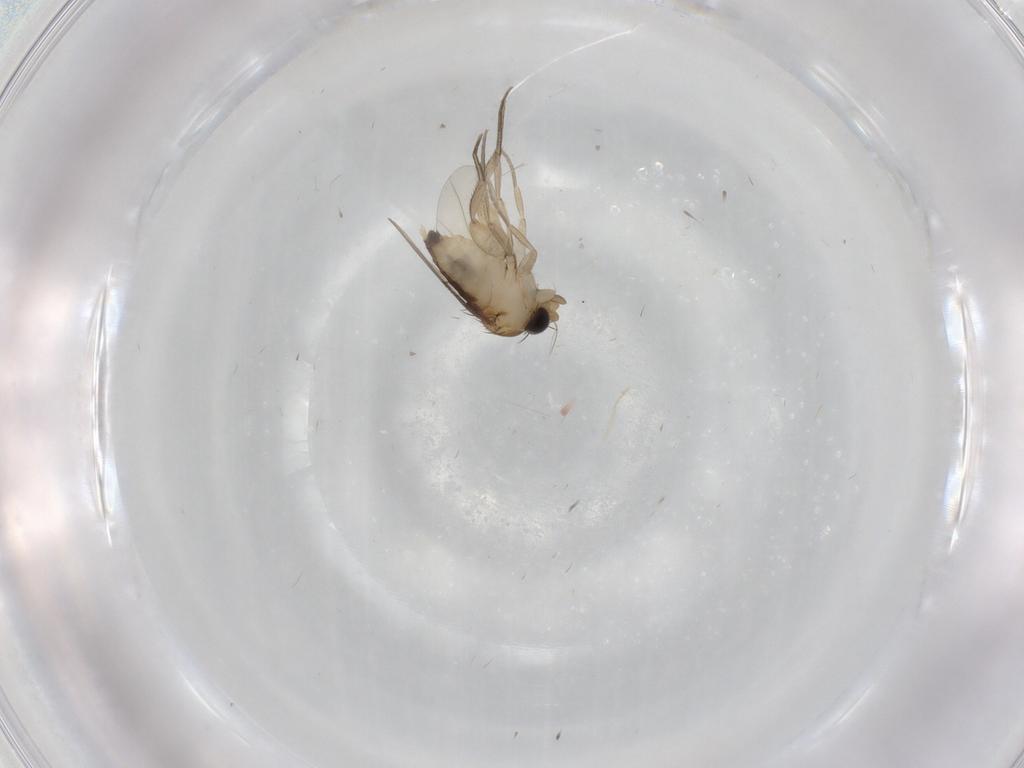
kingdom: Animalia
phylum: Arthropoda
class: Insecta
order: Diptera
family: Phoridae
